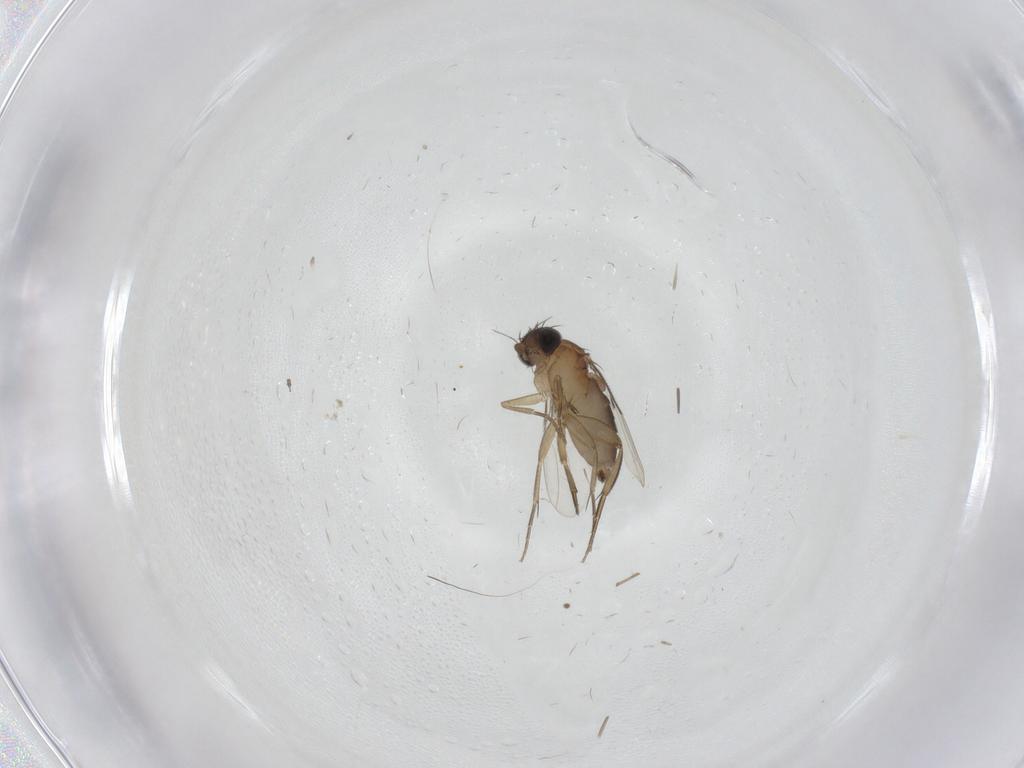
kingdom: Animalia
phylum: Arthropoda
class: Insecta
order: Diptera
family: Phoridae
